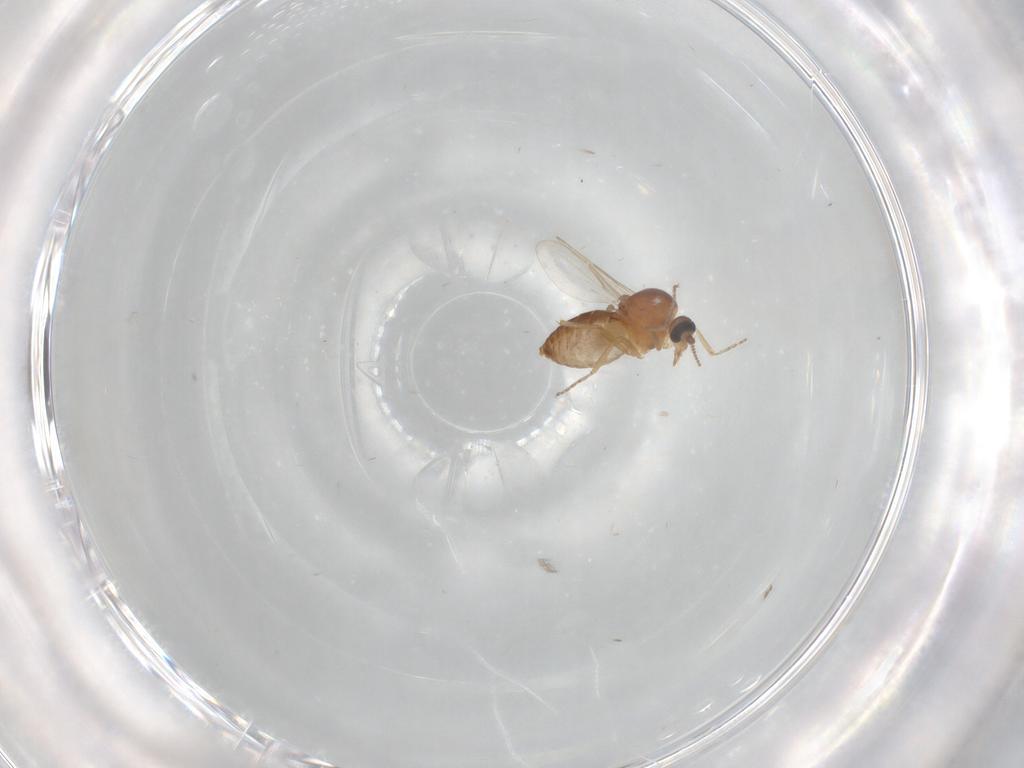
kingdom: Animalia
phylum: Arthropoda
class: Insecta
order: Diptera
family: Ceratopogonidae
